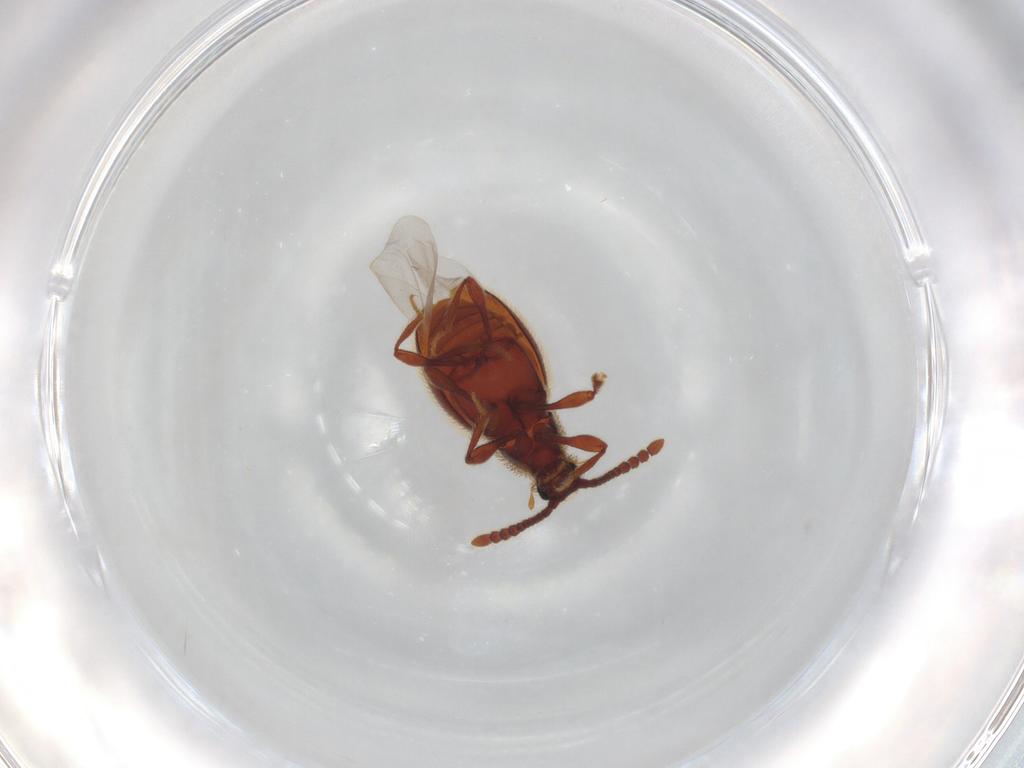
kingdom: Animalia
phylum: Arthropoda
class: Insecta
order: Coleoptera
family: Staphylinidae
